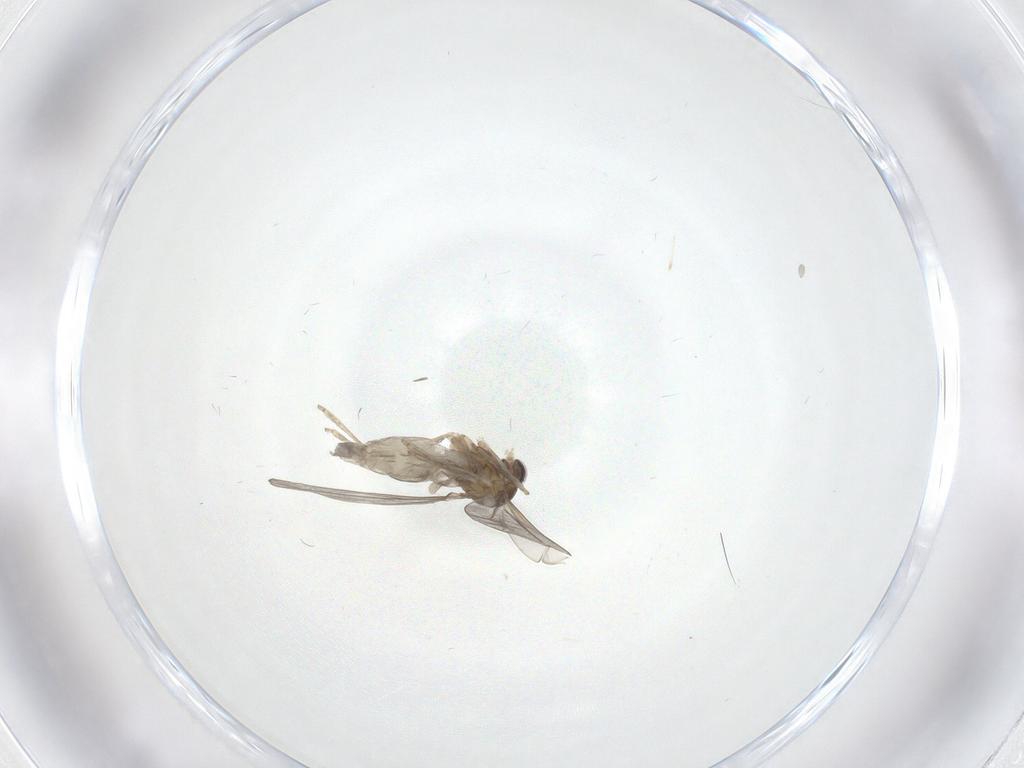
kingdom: Animalia
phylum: Arthropoda
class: Insecta
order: Diptera
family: Cecidomyiidae
